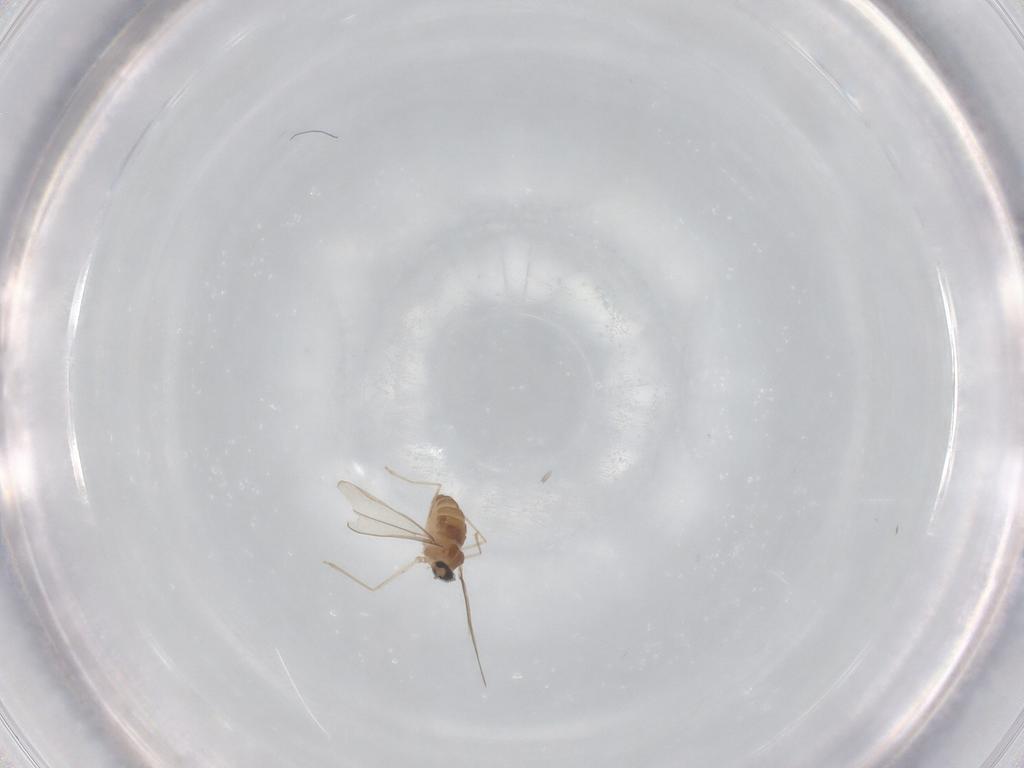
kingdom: Animalia
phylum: Arthropoda
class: Insecta
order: Diptera
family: Cecidomyiidae
